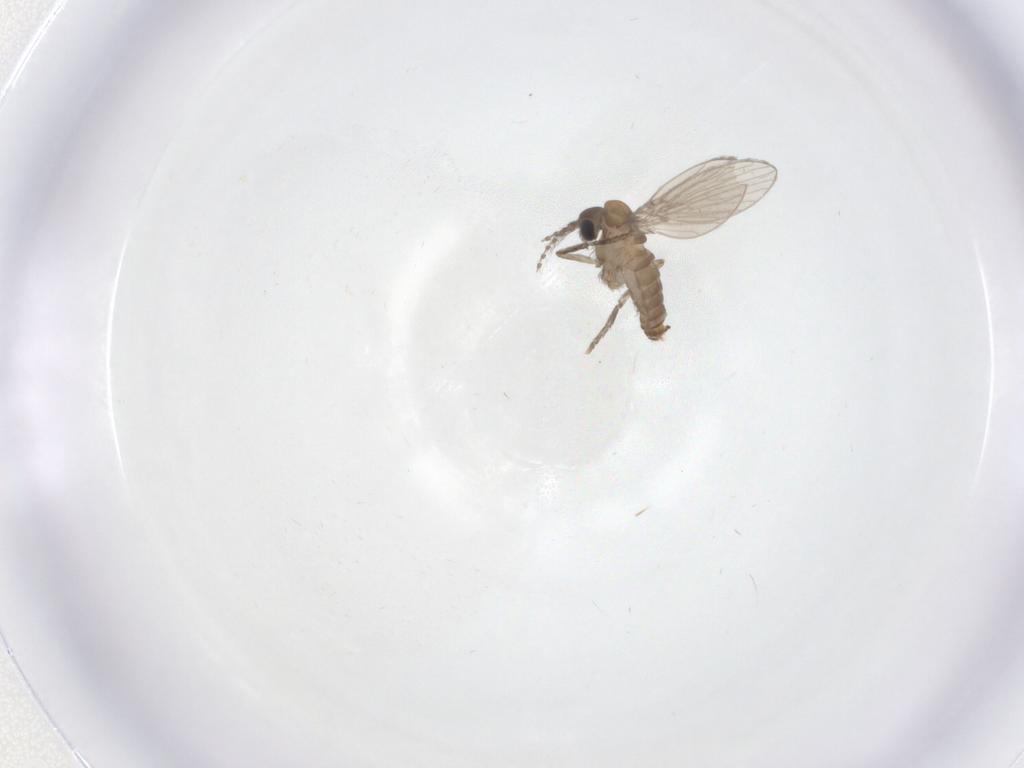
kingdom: Animalia
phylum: Arthropoda
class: Insecta
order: Diptera
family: Psychodidae
